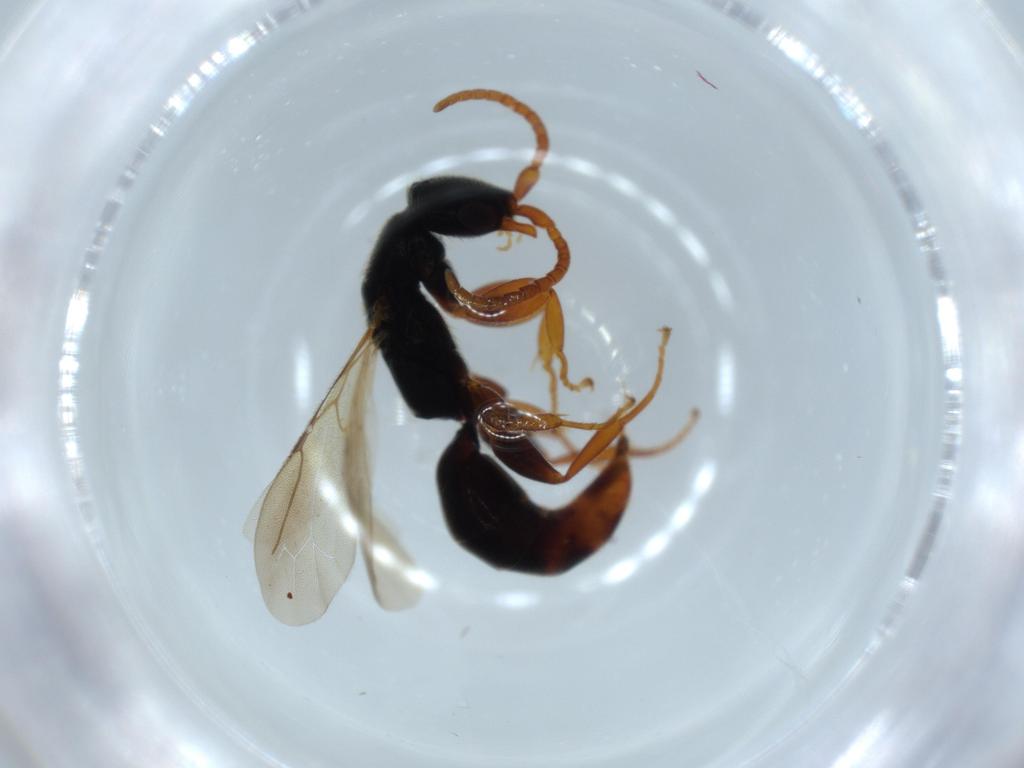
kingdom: Animalia
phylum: Arthropoda
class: Insecta
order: Hymenoptera
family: Bethylidae
